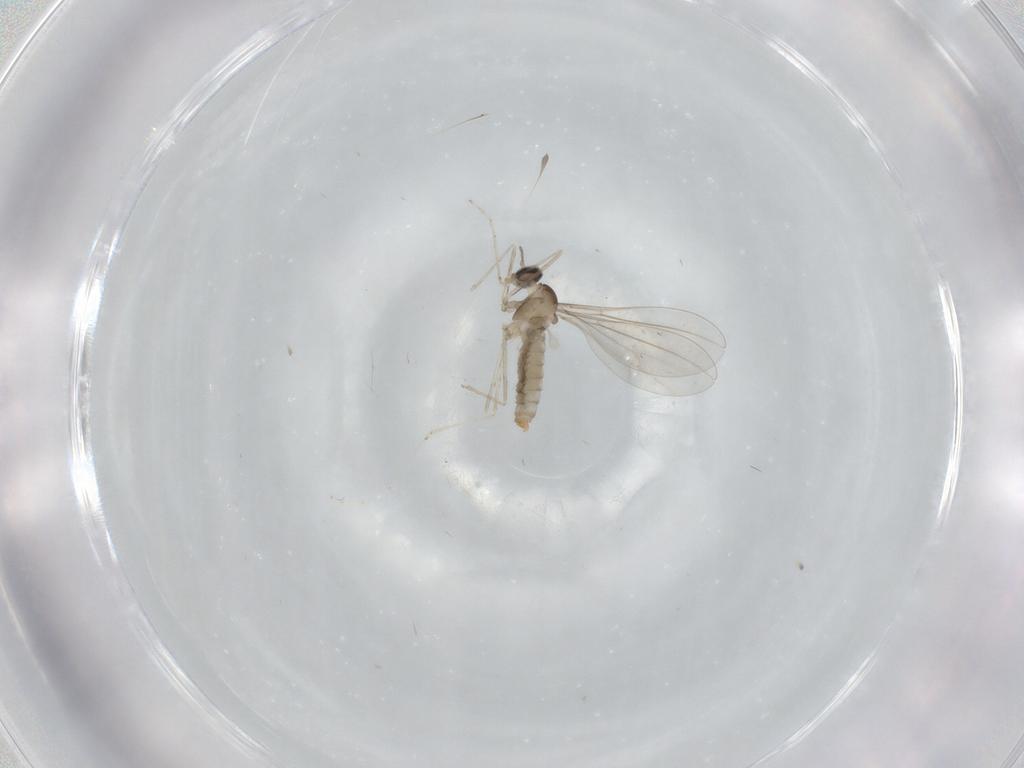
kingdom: Animalia
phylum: Arthropoda
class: Insecta
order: Diptera
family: Cecidomyiidae
